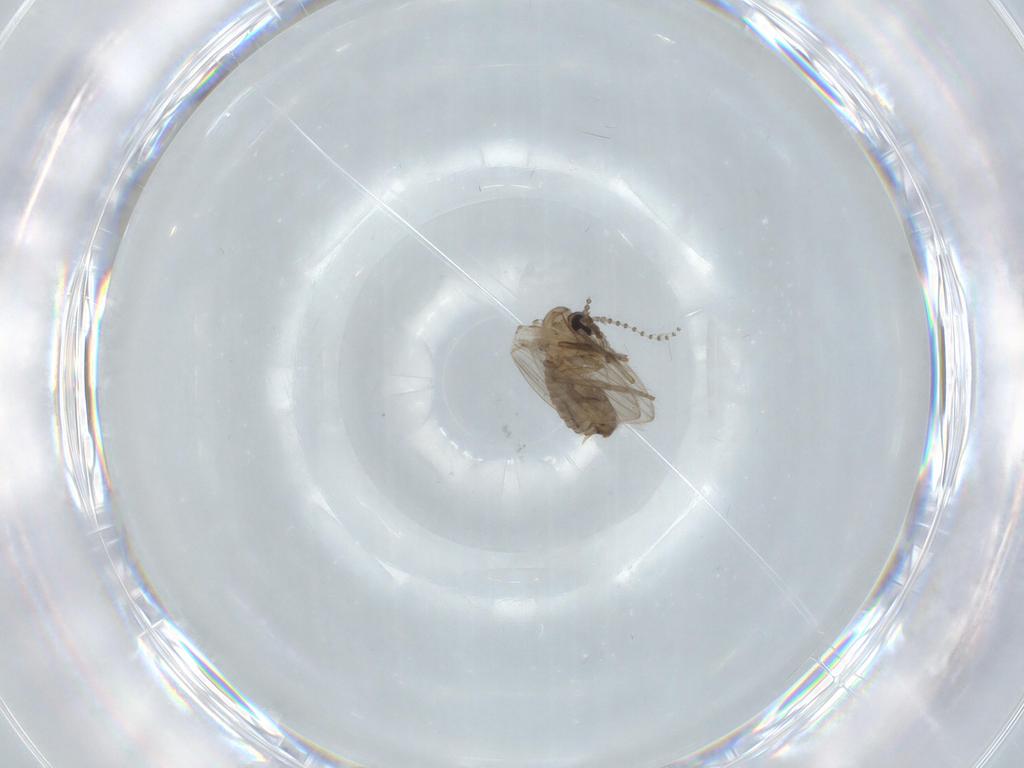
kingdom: Animalia
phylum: Arthropoda
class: Insecta
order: Diptera
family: Psychodidae
